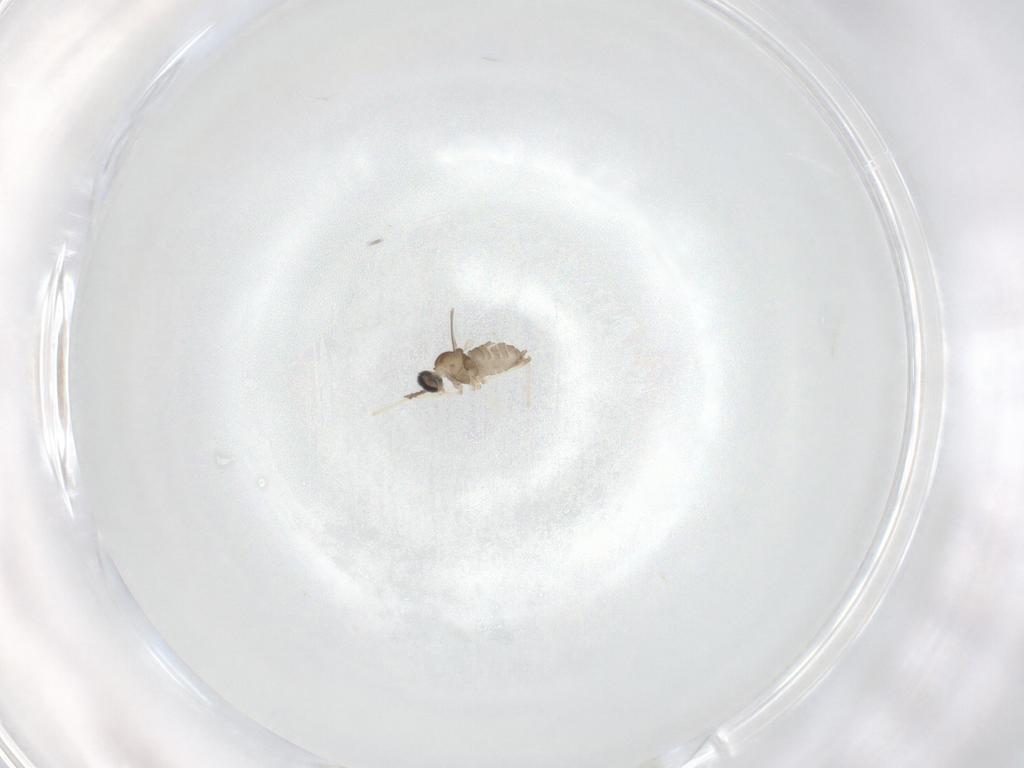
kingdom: Animalia
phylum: Arthropoda
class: Insecta
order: Diptera
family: Cecidomyiidae
